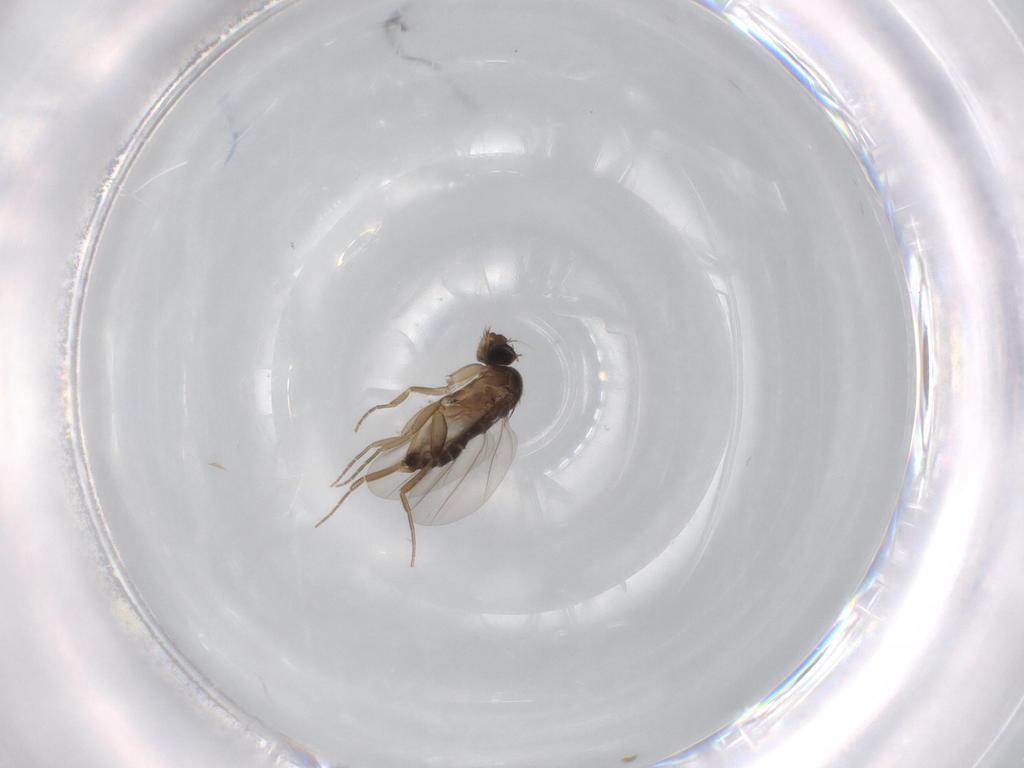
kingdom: Animalia
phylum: Arthropoda
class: Insecta
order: Diptera
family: Phoridae
